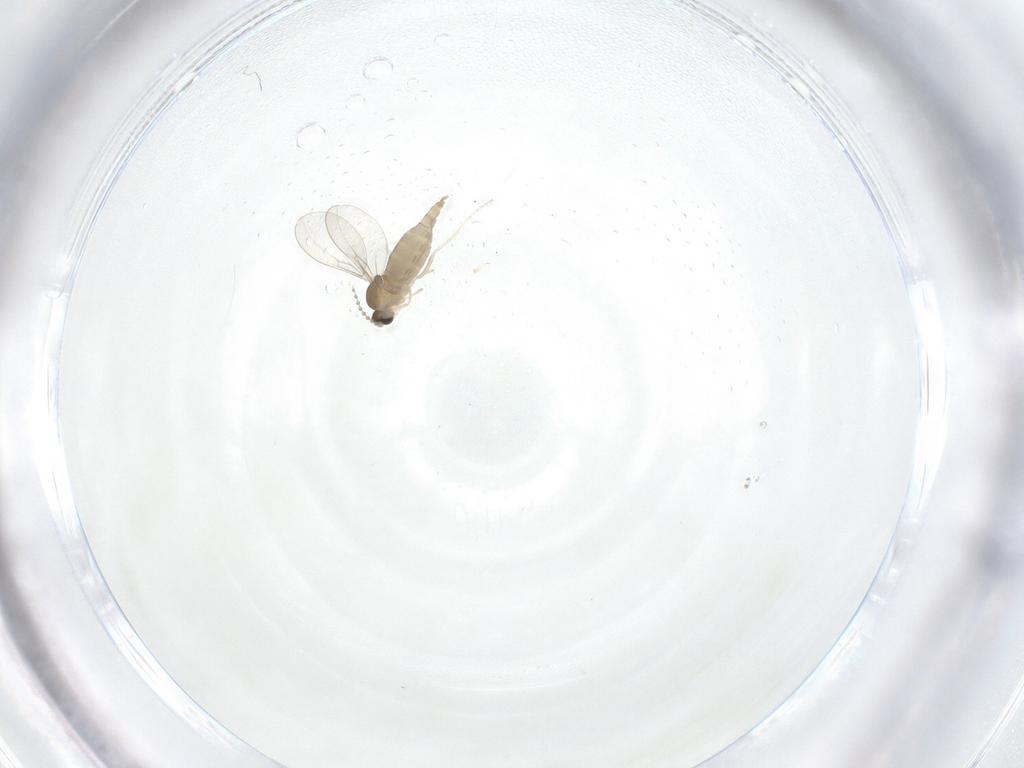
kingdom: Animalia
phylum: Arthropoda
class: Insecta
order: Diptera
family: Cecidomyiidae
